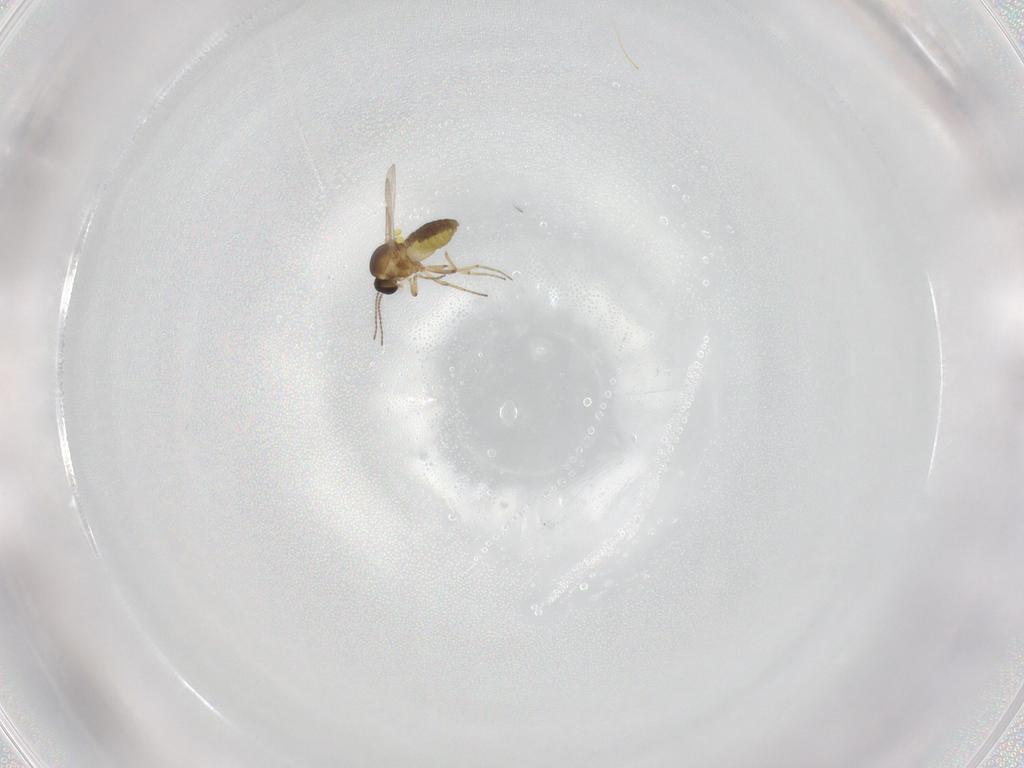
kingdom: Animalia
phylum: Arthropoda
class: Insecta
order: Diptera
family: Ceratopogonidae
